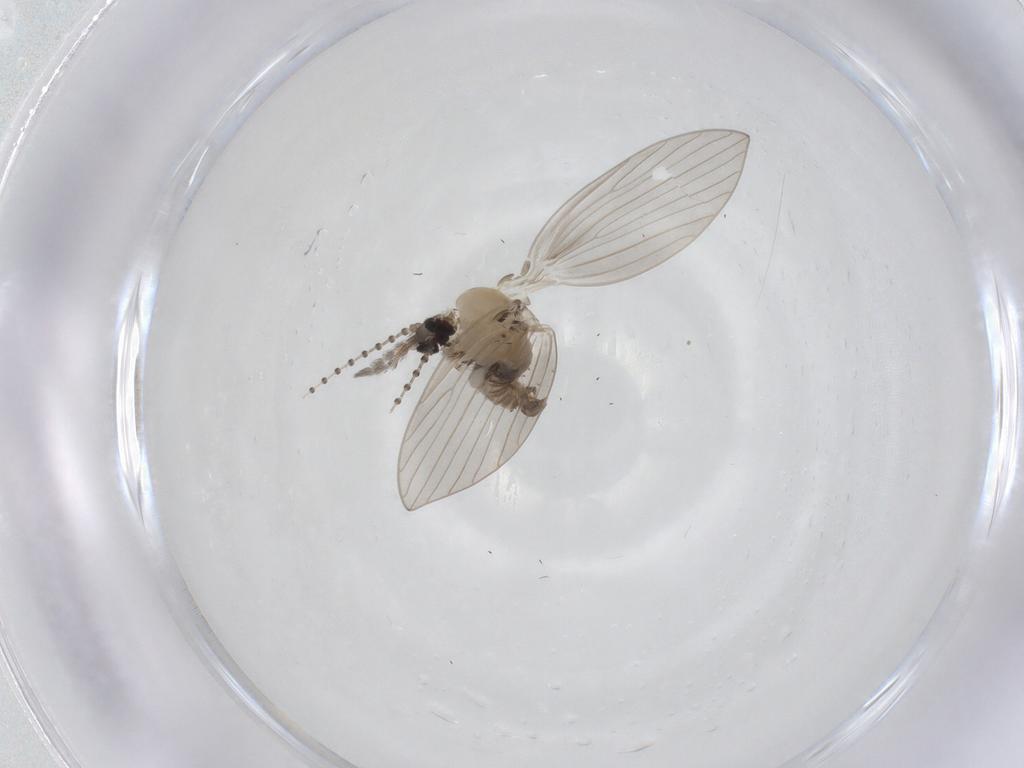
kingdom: Animalia
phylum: Arthropoda
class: Insecta
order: Diptera
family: Psychodidae
